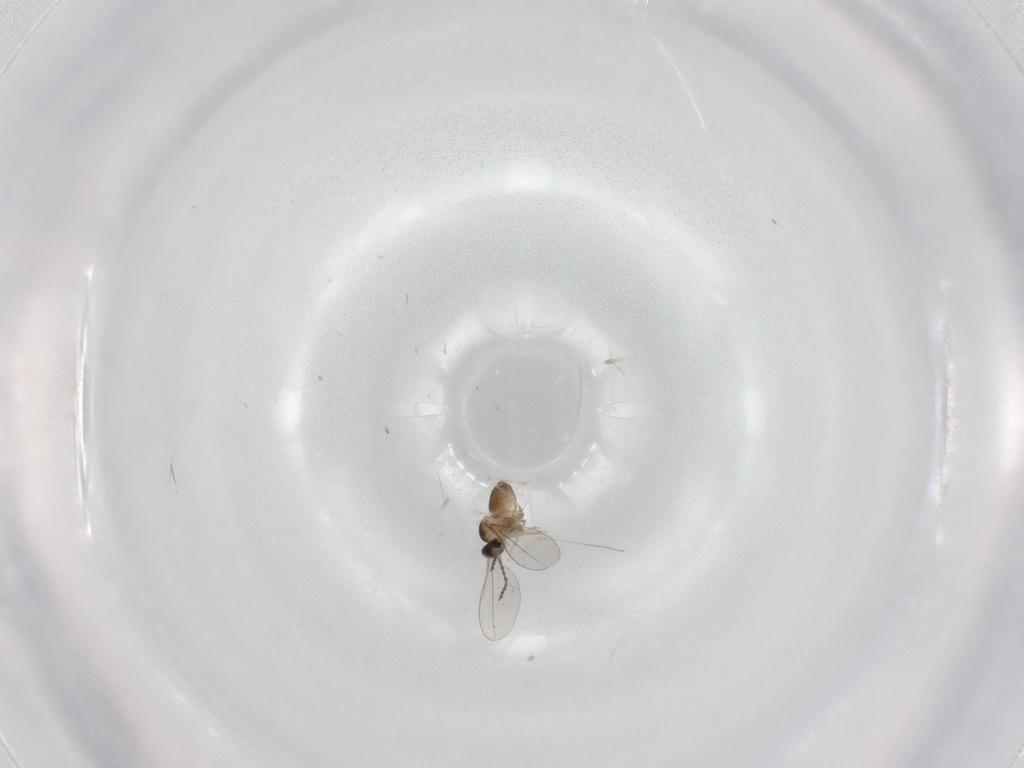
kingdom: Animalia
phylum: Arthropoda
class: Insecta
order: Diptera
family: Cecidomyiidae
